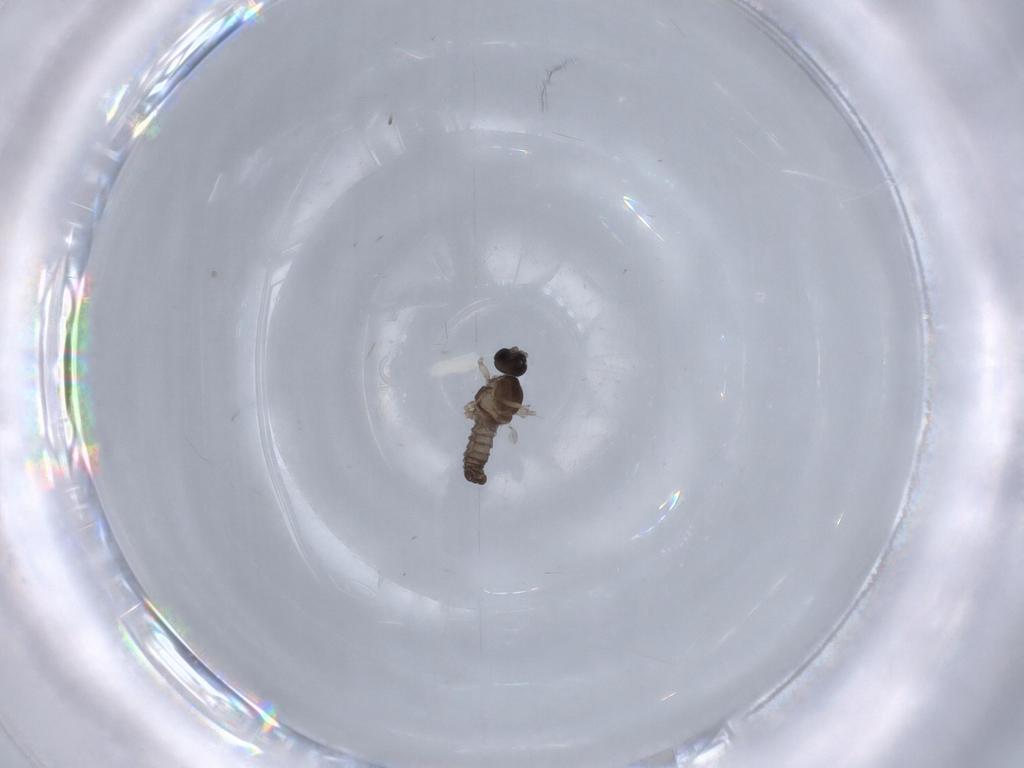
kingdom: Animalia
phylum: Arthropoda
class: Insecta
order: Diptera
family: Cecidomyiidae
